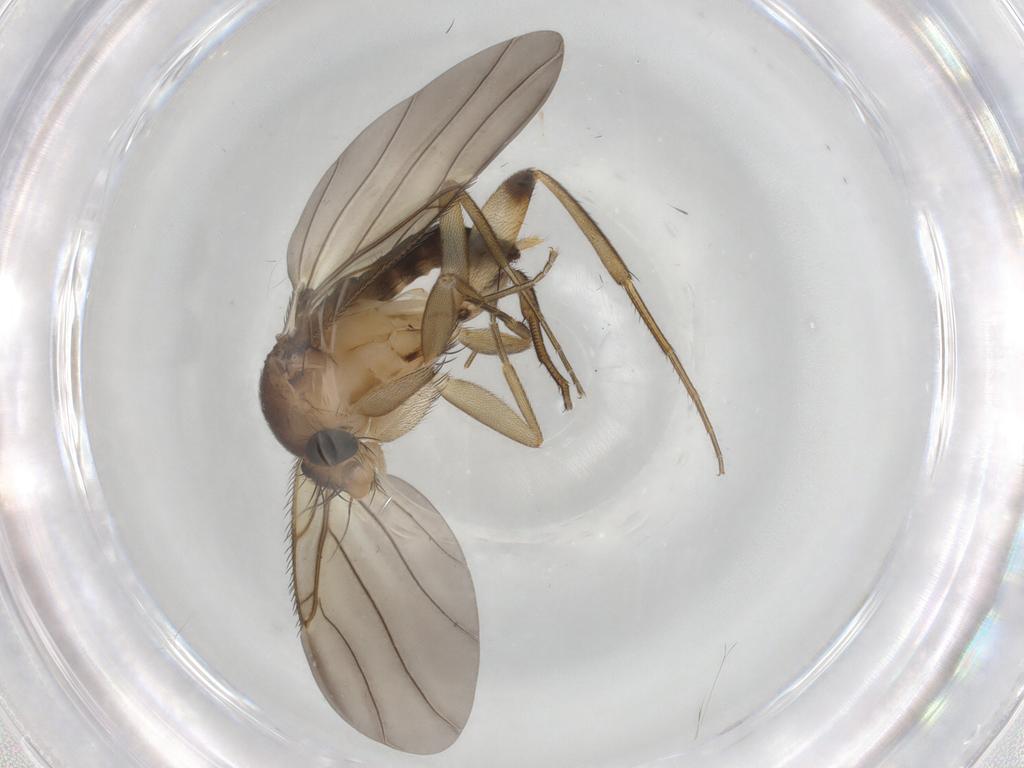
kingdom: Animalia
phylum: Arthropoda
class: Insecta
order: Diptera
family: Phoridae
